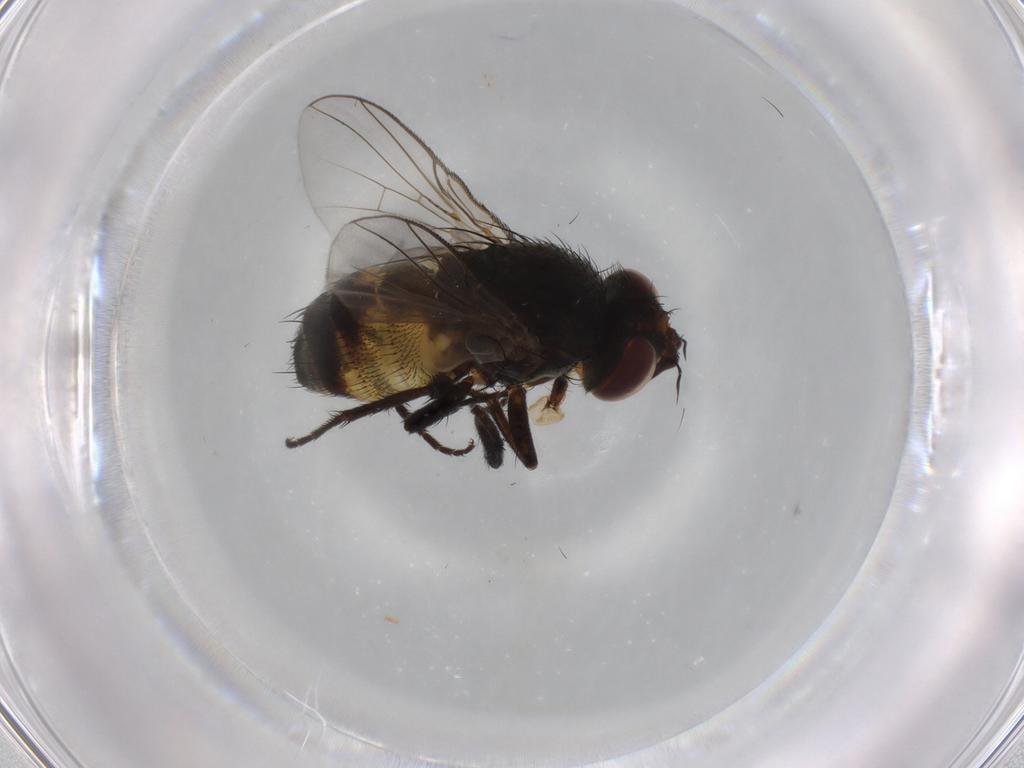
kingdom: Animalia
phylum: Arthropoda
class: Insecta
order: Diptera
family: Tachinidae
